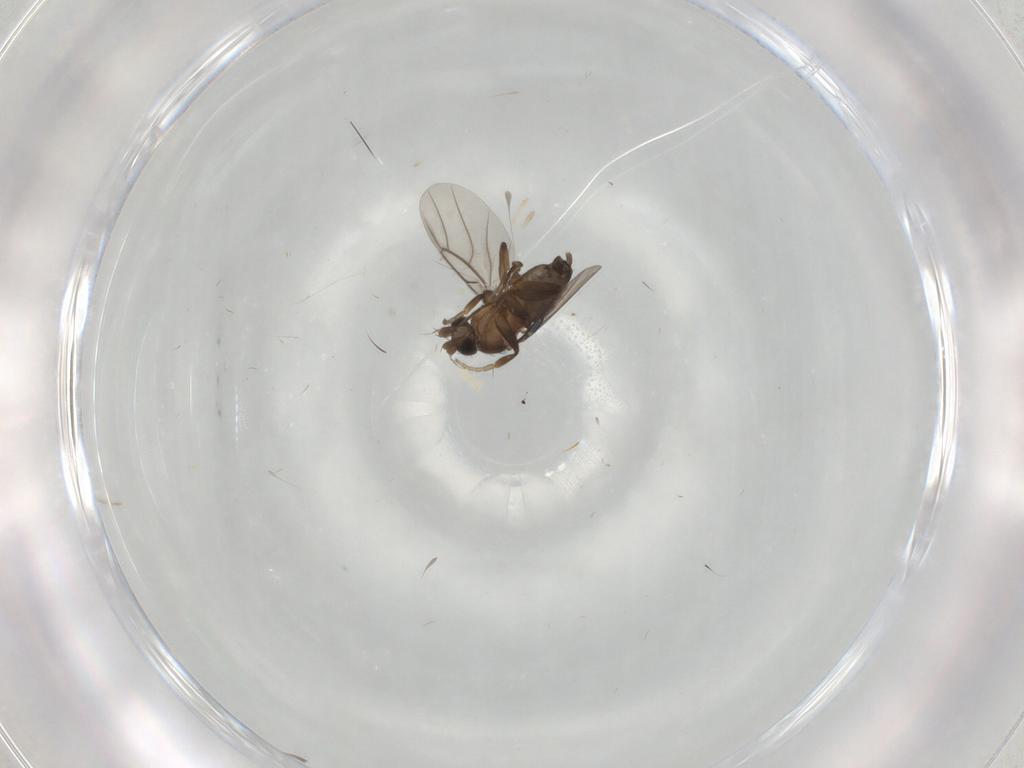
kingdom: Animalia
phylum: Arthropoda
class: Insecta
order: Diptera
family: Phoridae
